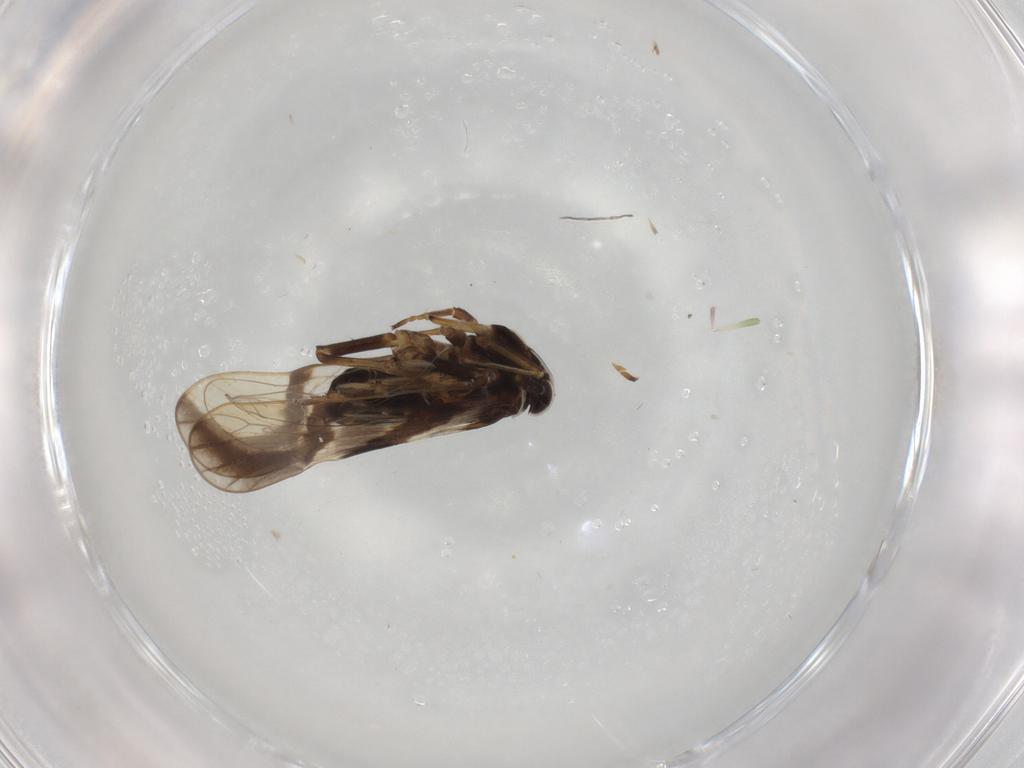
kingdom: Animalia
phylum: Arthropoda
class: Insecta
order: Hemiptera
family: Delphacidae
